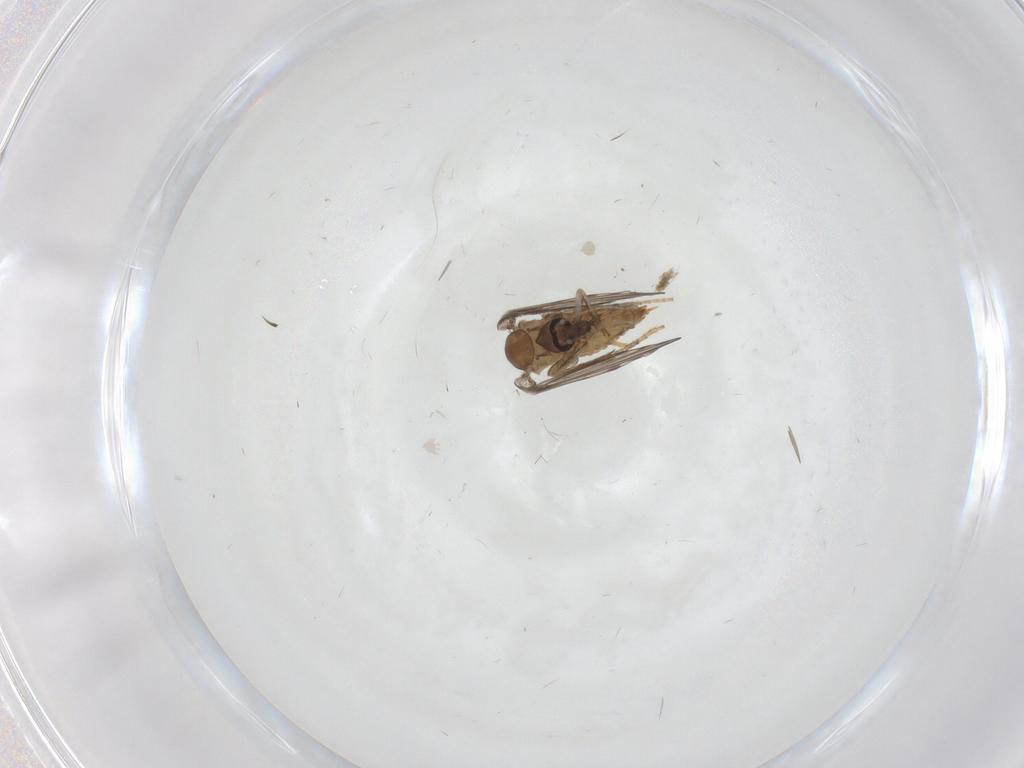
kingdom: Animalia
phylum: Arthropoda
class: Insecta
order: Diptera
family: Psychodidae
